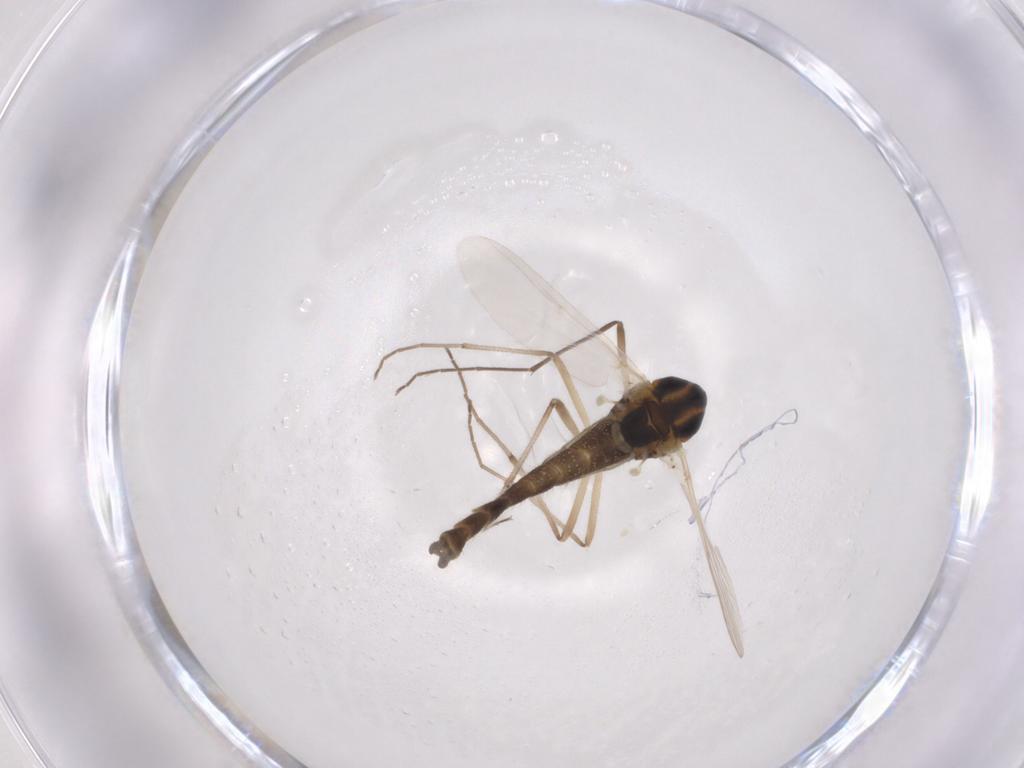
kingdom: Animalia
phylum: Arthropoda
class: Insecta
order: Diptera
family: Chironomidae
